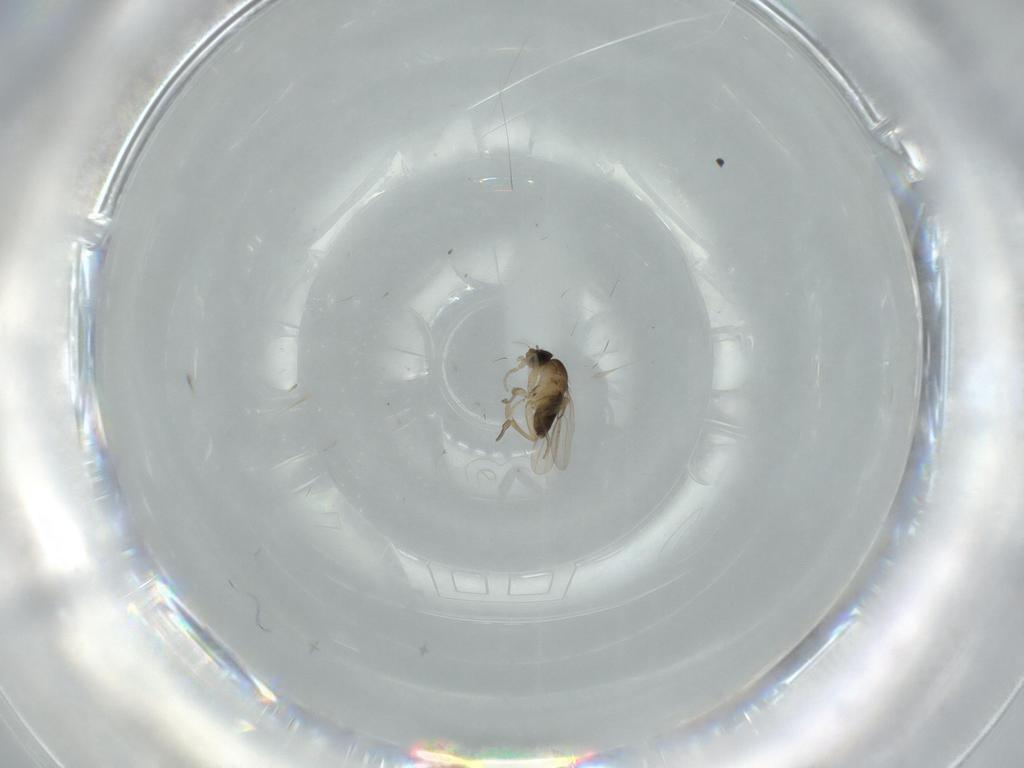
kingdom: Animalia
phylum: Arthropoda
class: Insecta
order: Diptera
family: Phoridae
